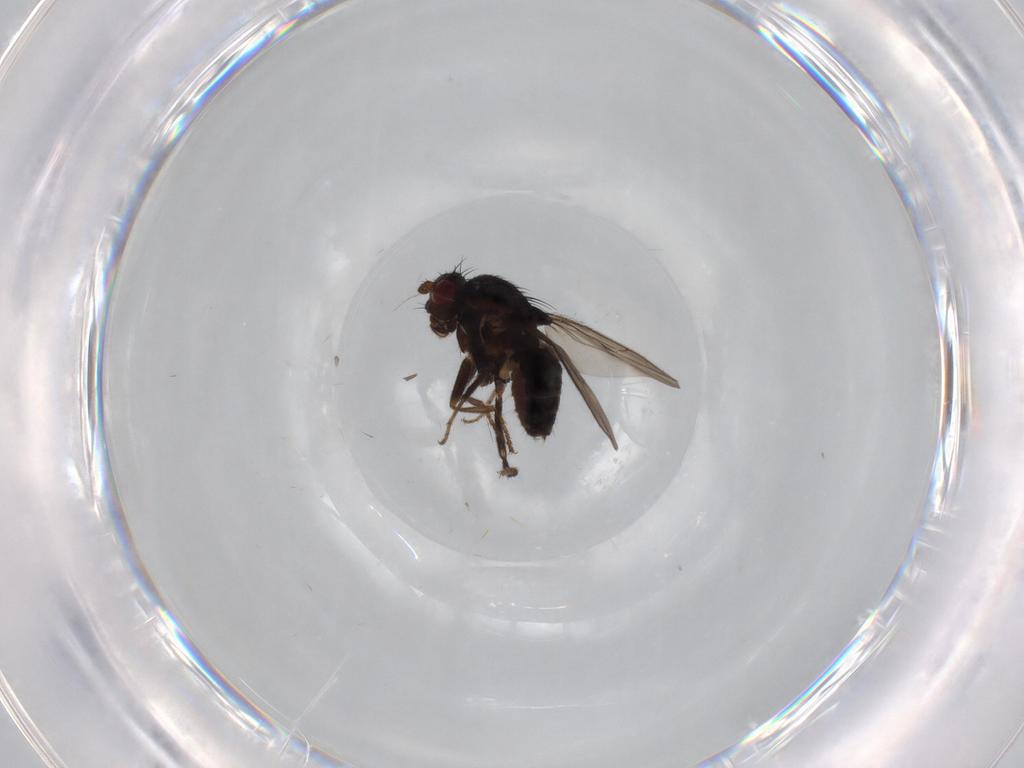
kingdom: Animalia
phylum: Arthropoda
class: Insecta
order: Diptera
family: Sphaeroceridae
